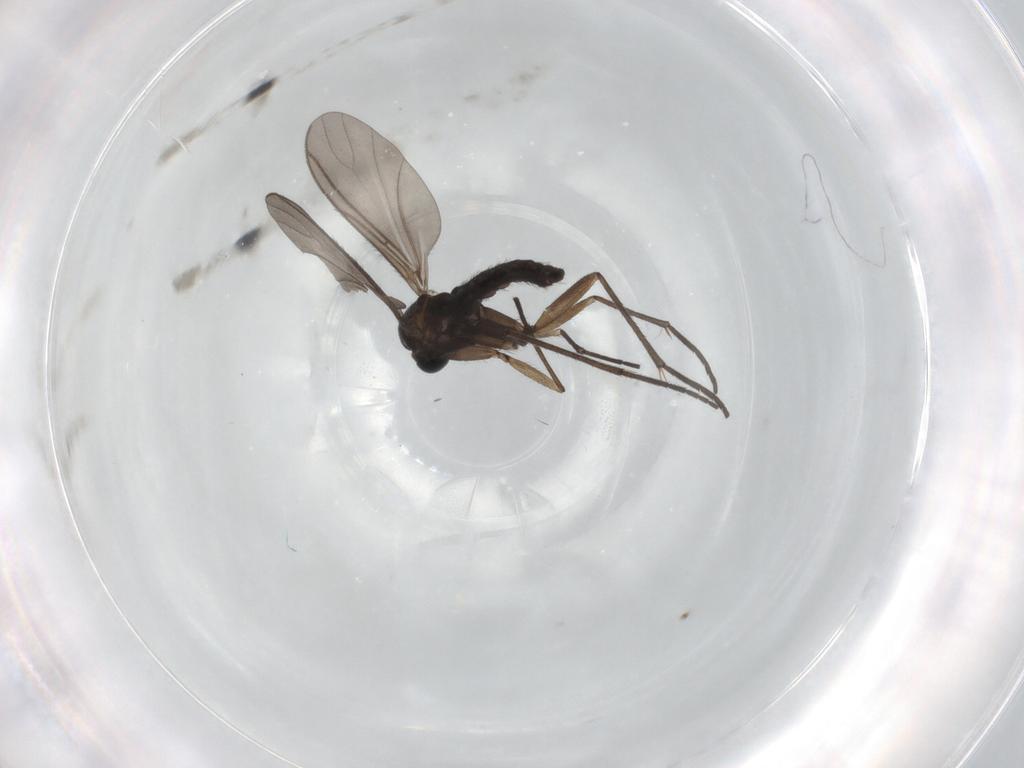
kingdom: Animalia
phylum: Arthropoda
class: Insecta
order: Diptera
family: Sciaridae
